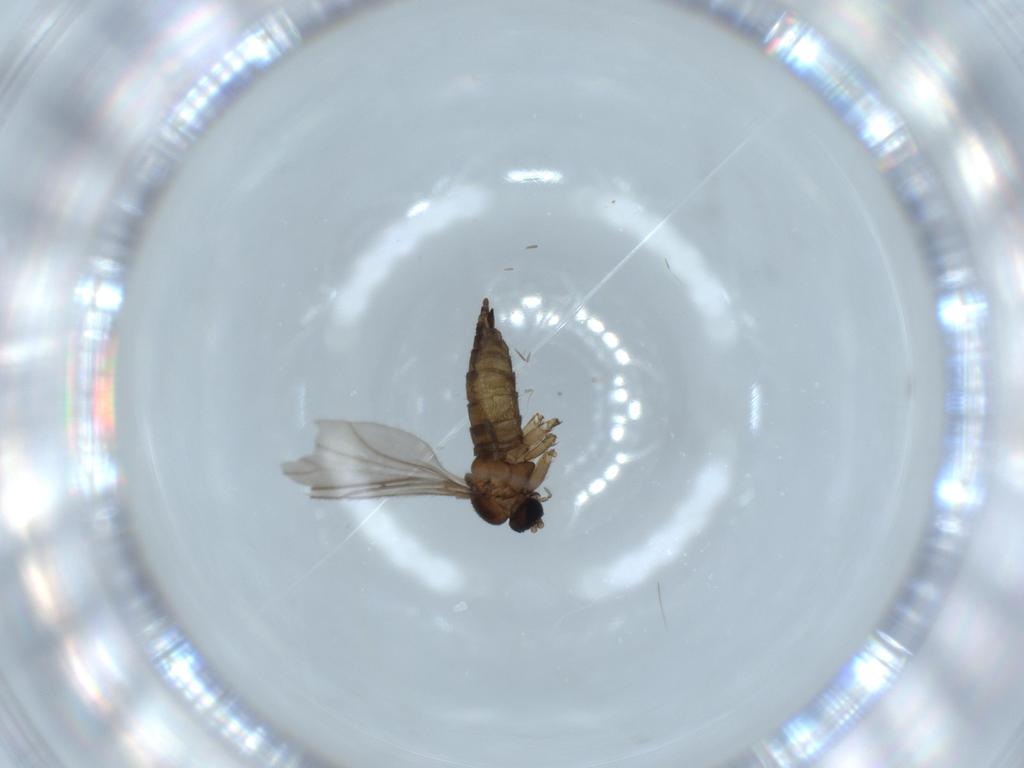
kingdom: Animalia
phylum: Arthropoda
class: Insecta
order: Diptera
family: Sciaridae
